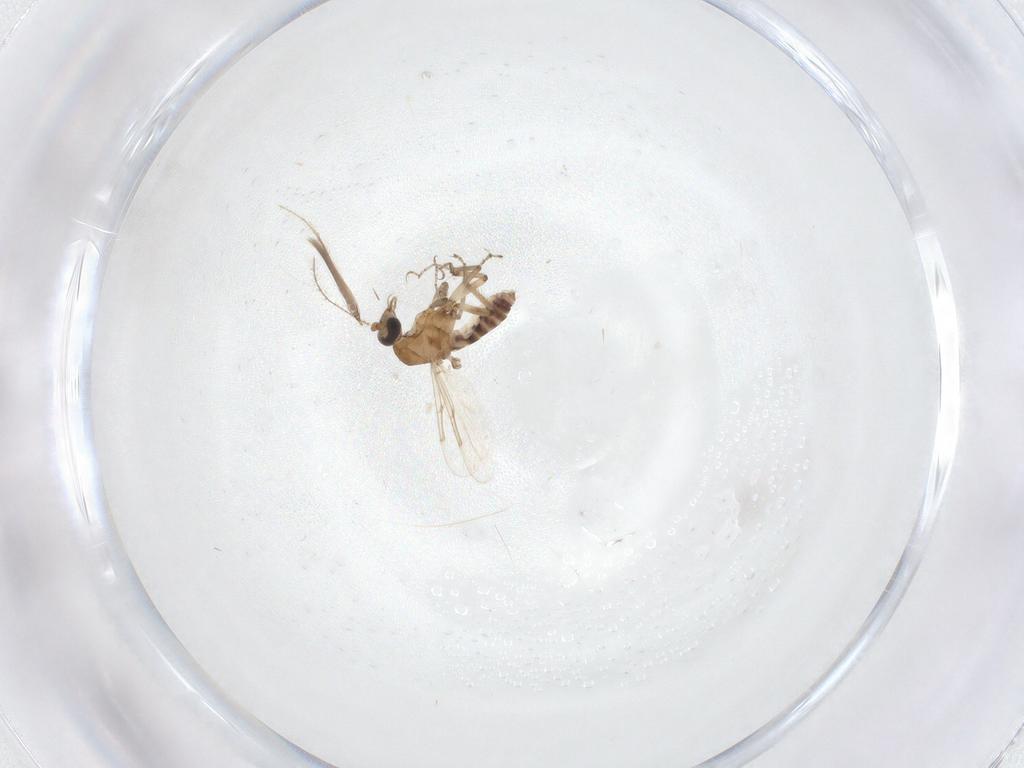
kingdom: Animalia
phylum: Arthropoda
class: Insecta
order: Diptera
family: Ceratopogonidae
